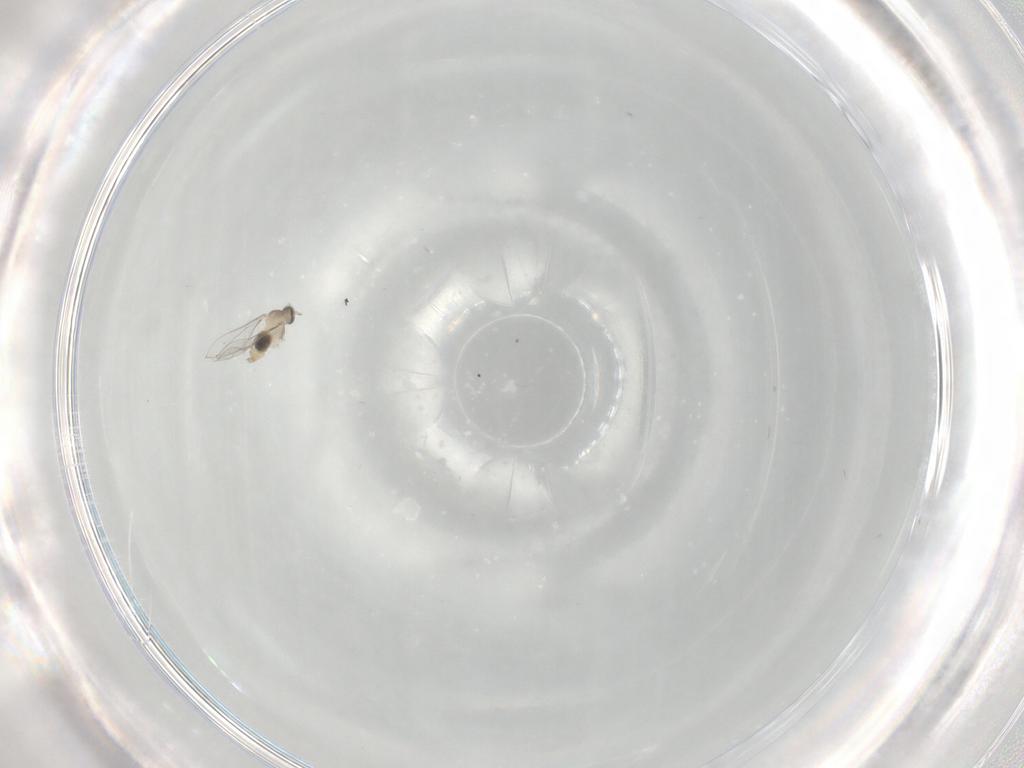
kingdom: Animalia
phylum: Arthropoda
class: Insecta
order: Diptera
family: Cecidomyiidae
